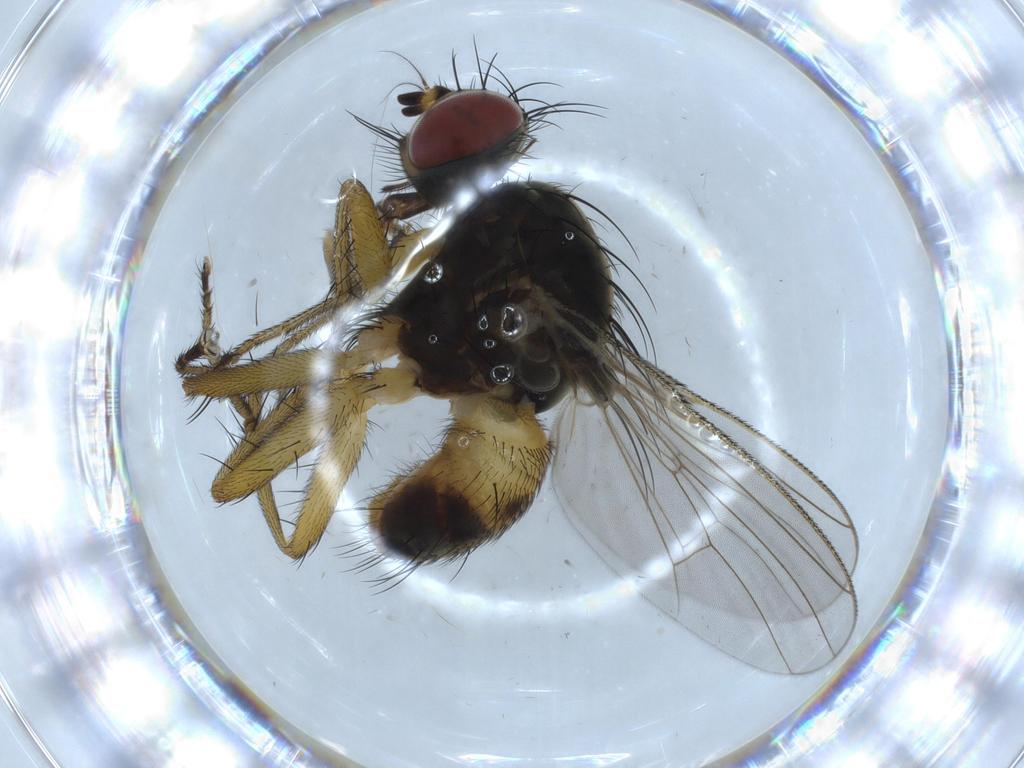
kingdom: Animalia
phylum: Arthropoda
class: Insecta
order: Diptera
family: Muscidae
